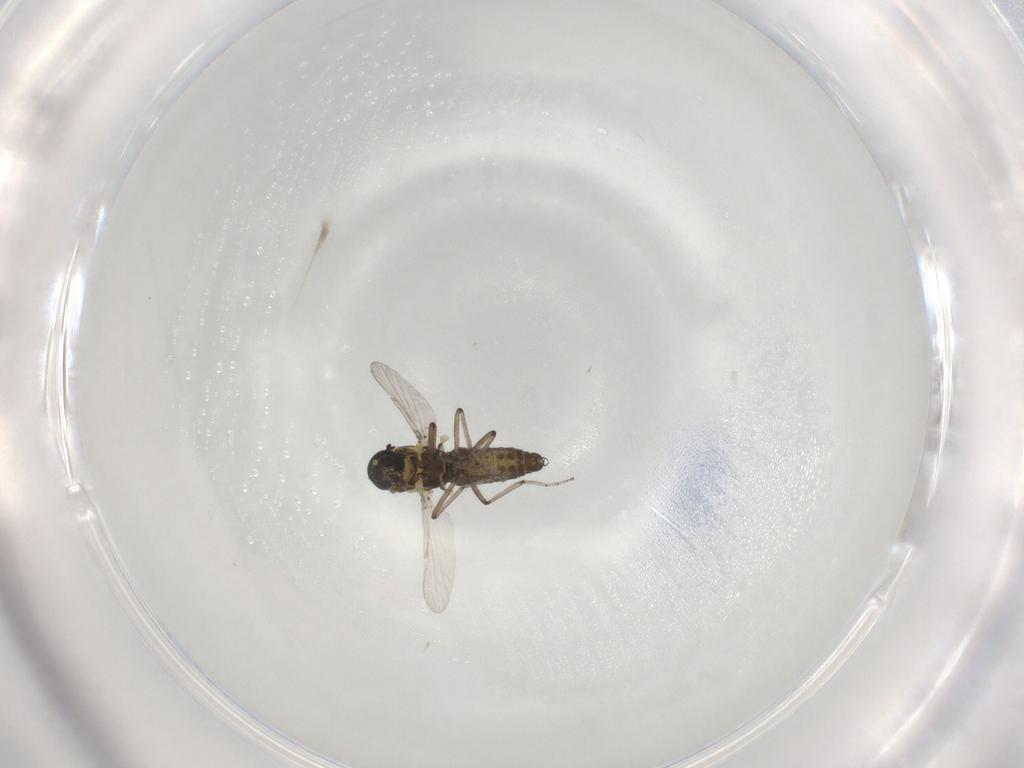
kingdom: Animalia
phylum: Arthropoda
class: Insecta
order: Diptera
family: Ceratopogonidae
